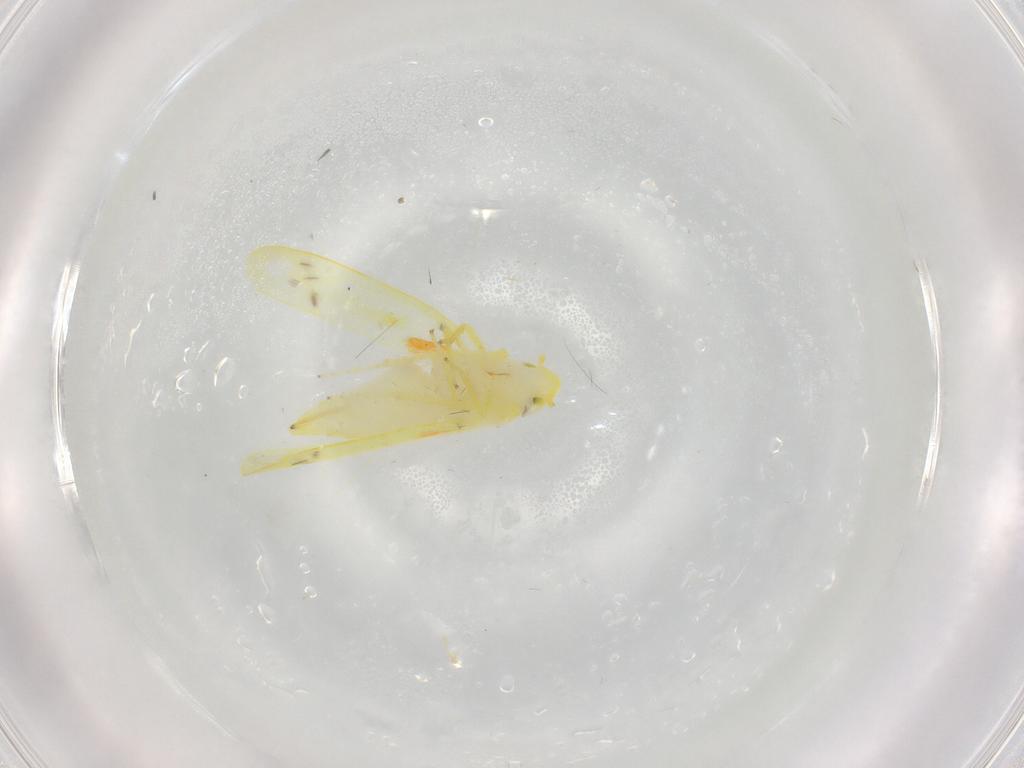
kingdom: Animalia
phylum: Arthropoda
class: Insecta
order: Hemiptera
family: Cicadellidae
